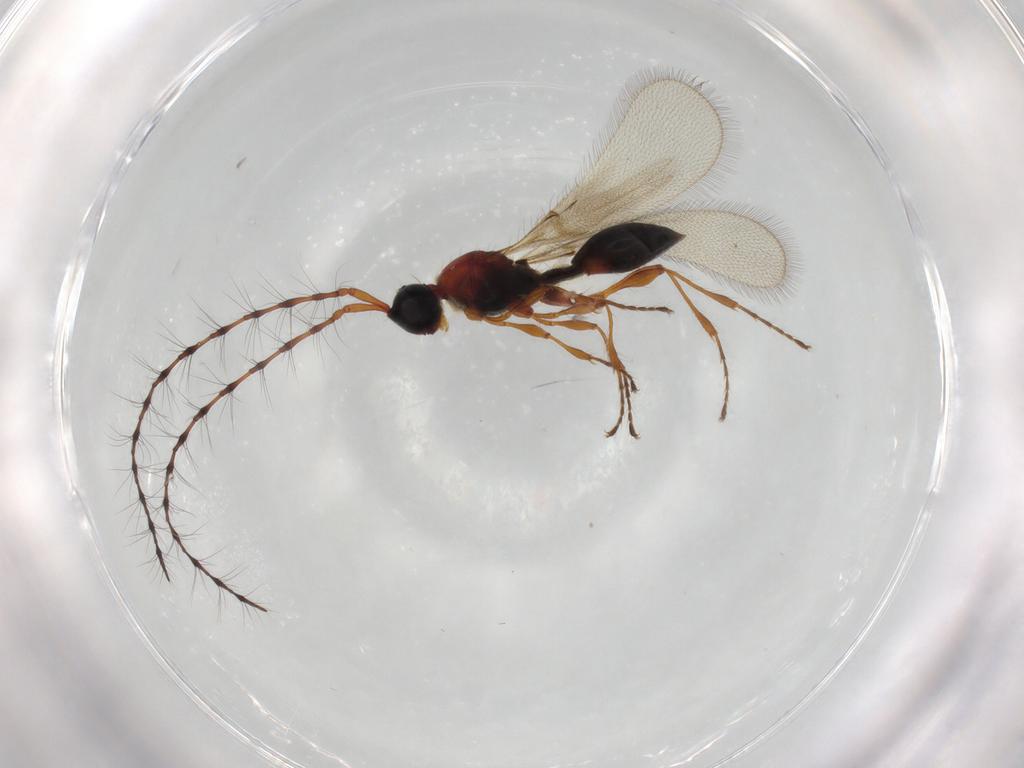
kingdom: Animalia
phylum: Arthropoda
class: Insecta
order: Hymenoptera
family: Diapriidae
